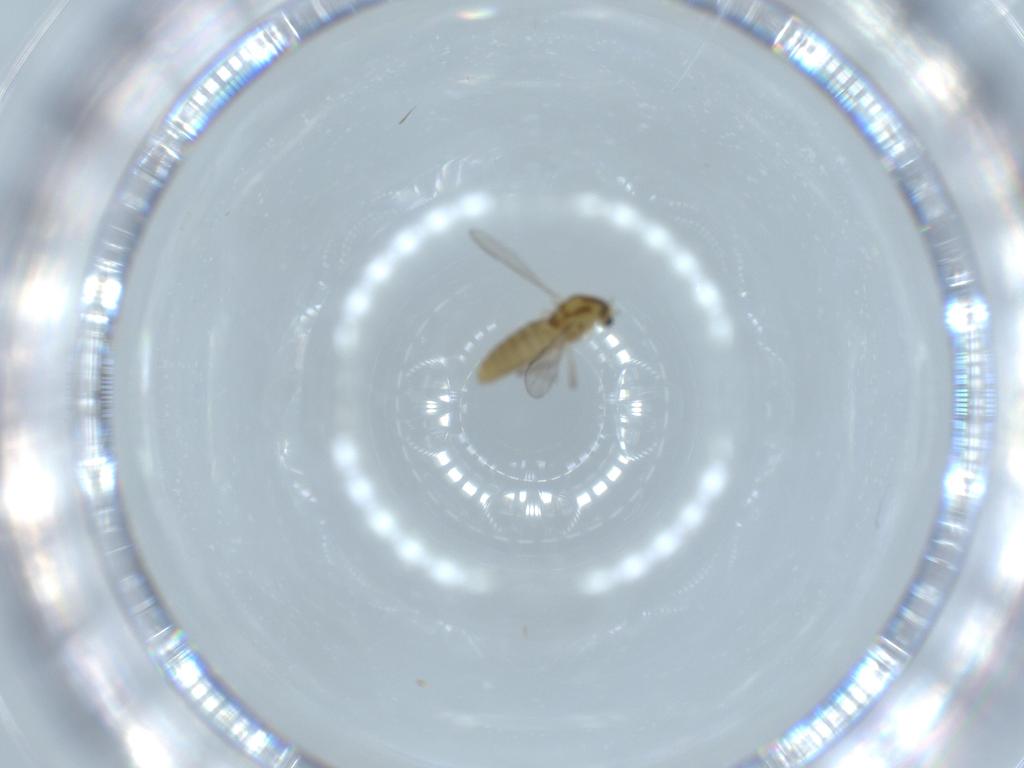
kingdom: Animalia
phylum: Arthropoda
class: Insecta
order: Diptera
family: Chironomidae
